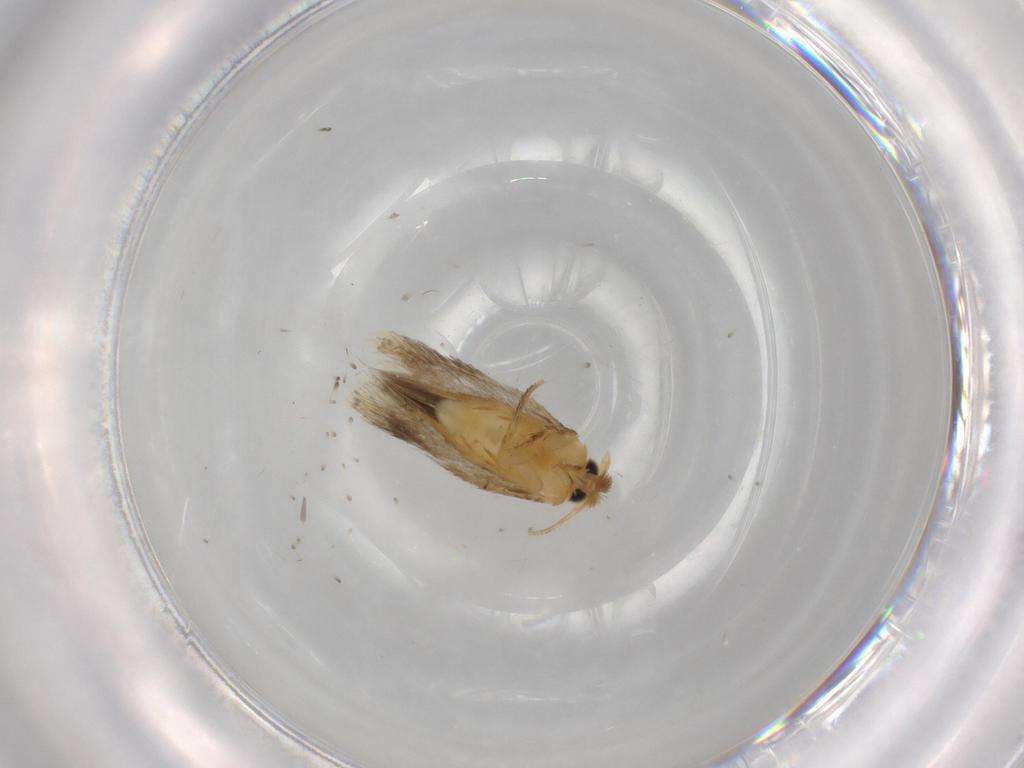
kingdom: Animalia
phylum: Arthropoda
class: Insecta
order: Lepidoptera
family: Nepticulidae
